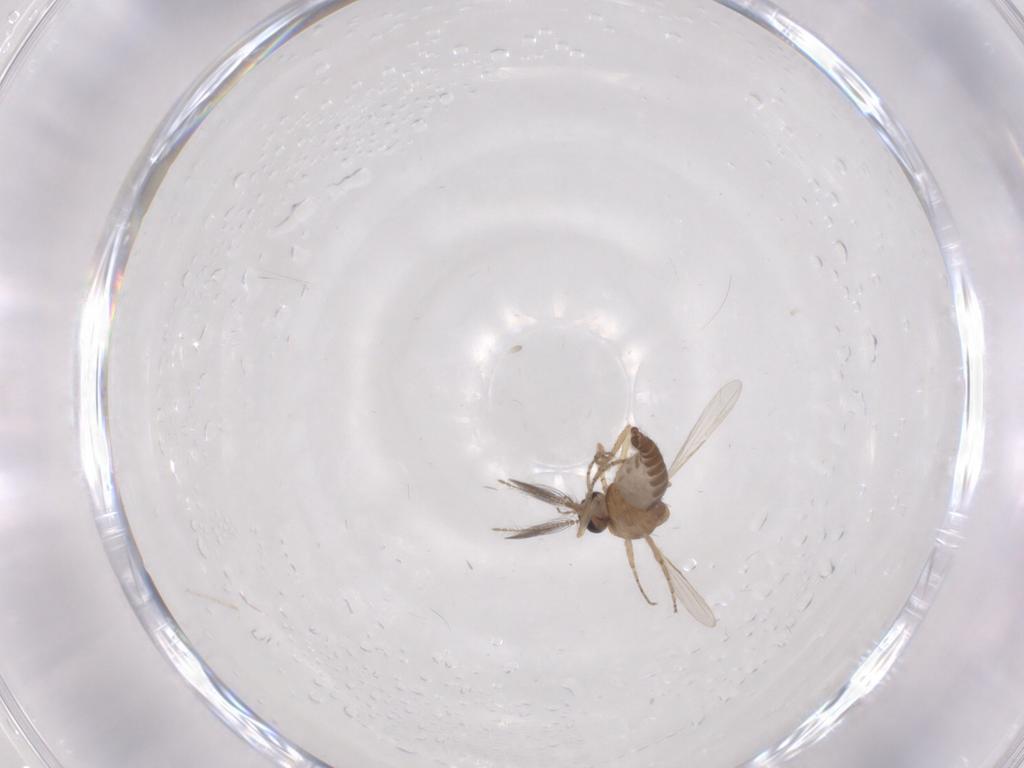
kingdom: Animalia
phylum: Arthropoda
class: Insecta
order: Diptera
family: Ceratopogonidae
